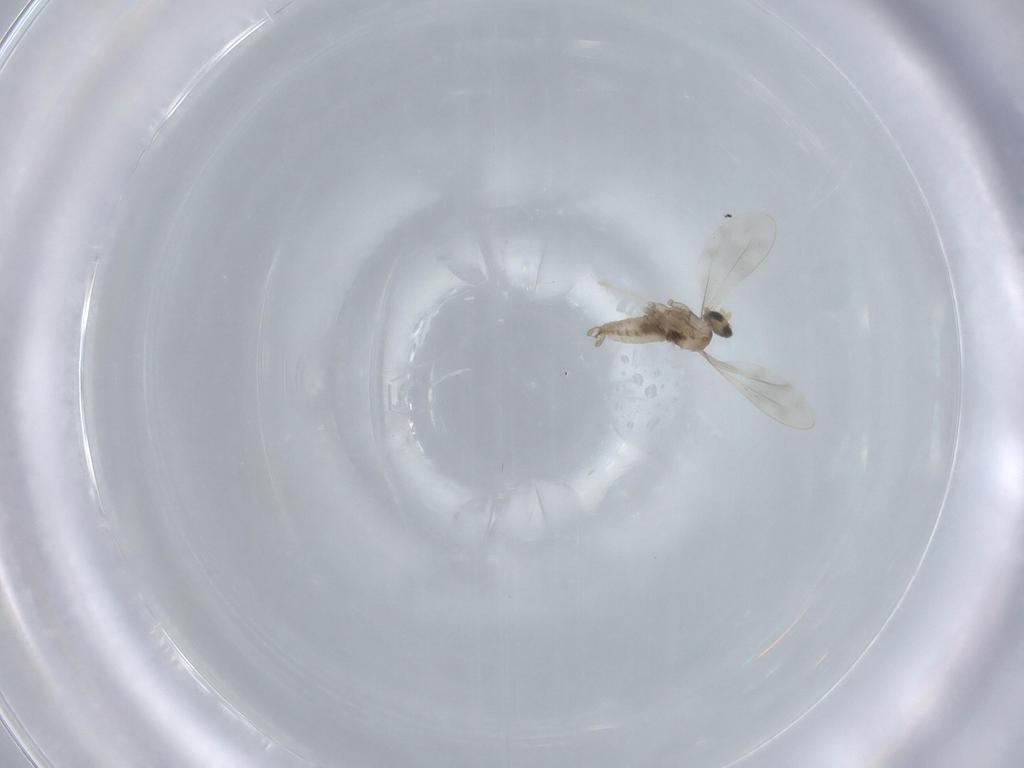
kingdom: Animalia
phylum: Arthropoda
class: Insecta
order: Diptera
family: Cecidomyiidae
